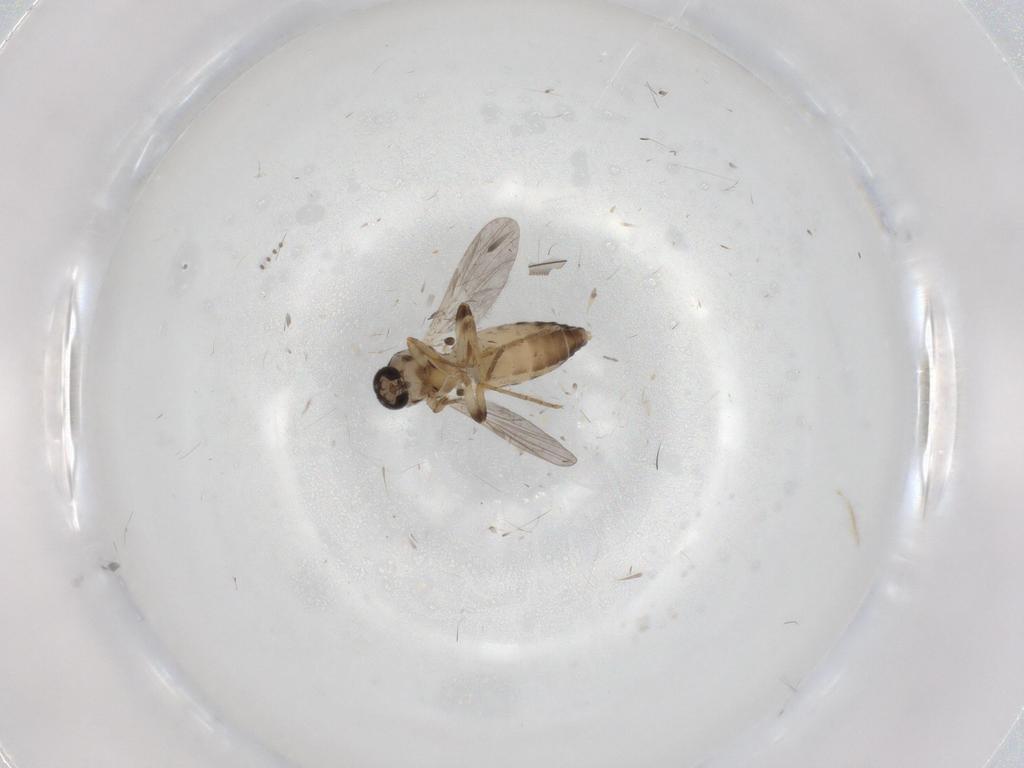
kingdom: Animalia
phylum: Arthropoda
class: Insecta
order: Diptera
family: Ceratopogonidae
